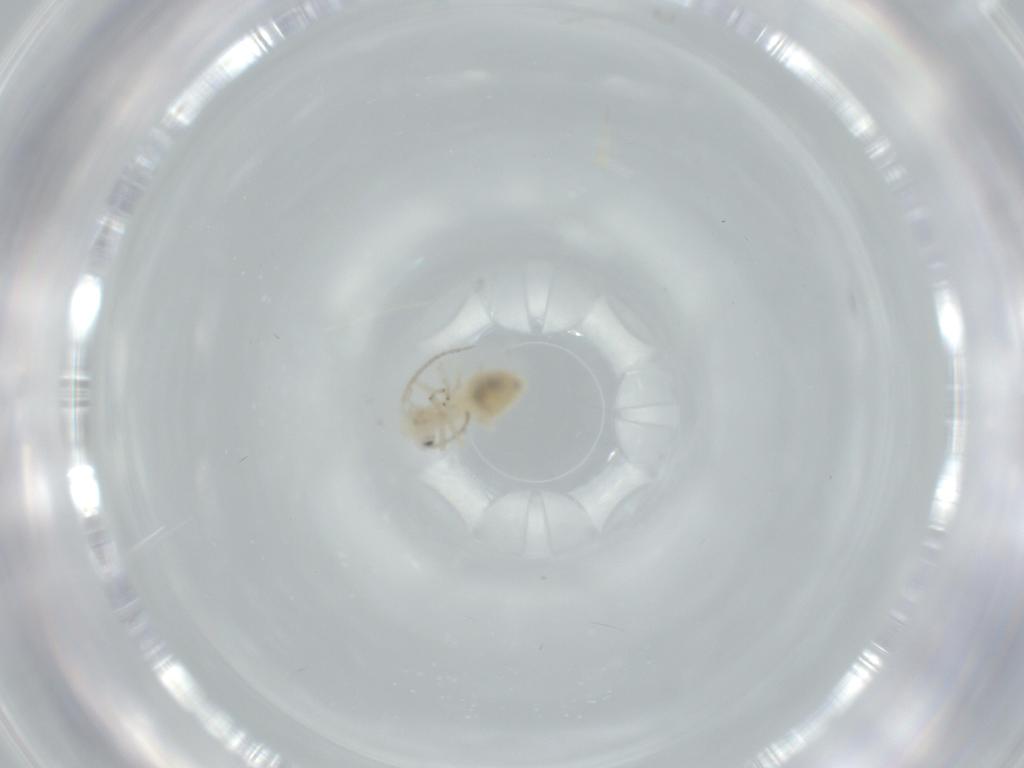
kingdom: Animalia
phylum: Arthropoda
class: Insecta
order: Psocodea
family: Caeciliusidae
